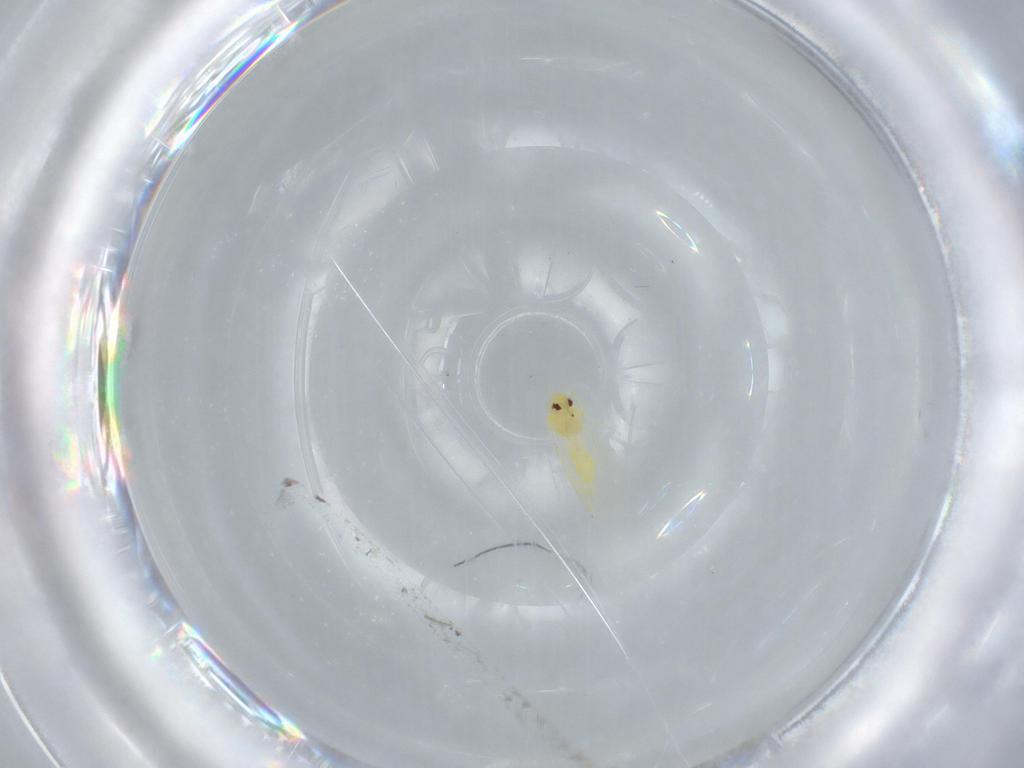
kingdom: Animalia
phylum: Arthropoda
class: Insecta
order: Hemiptera
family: Aleyrodidae
